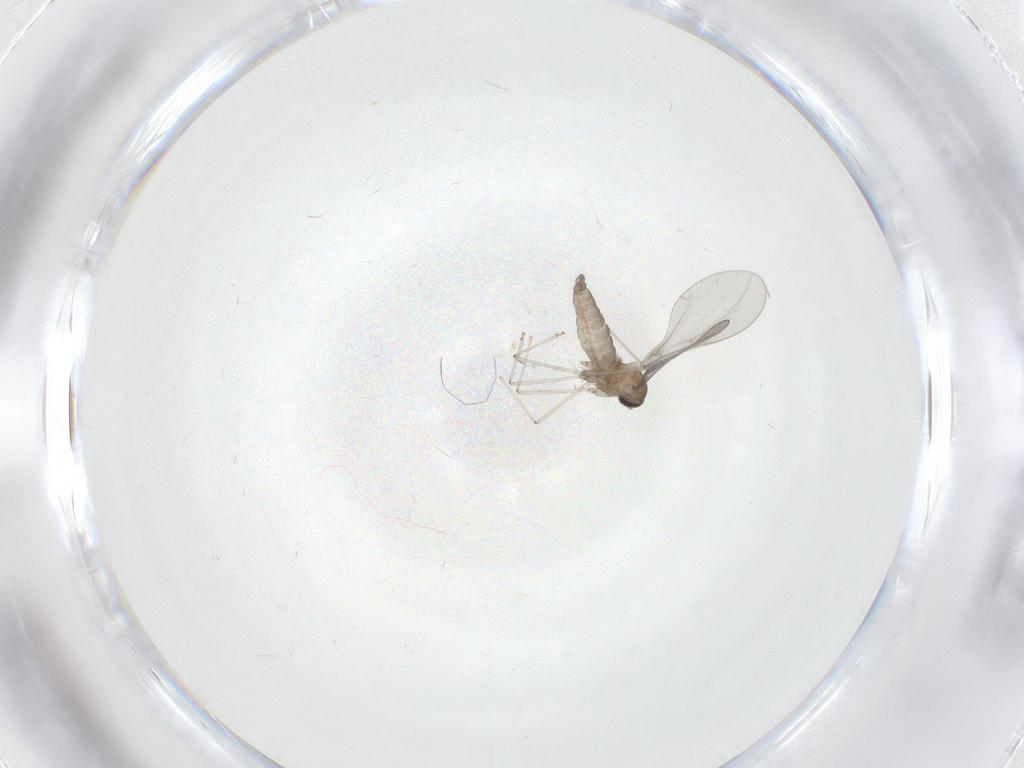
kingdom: Animalia
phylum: Arthropoda
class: Insecta
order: Diptera
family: Cecidomyiidae
